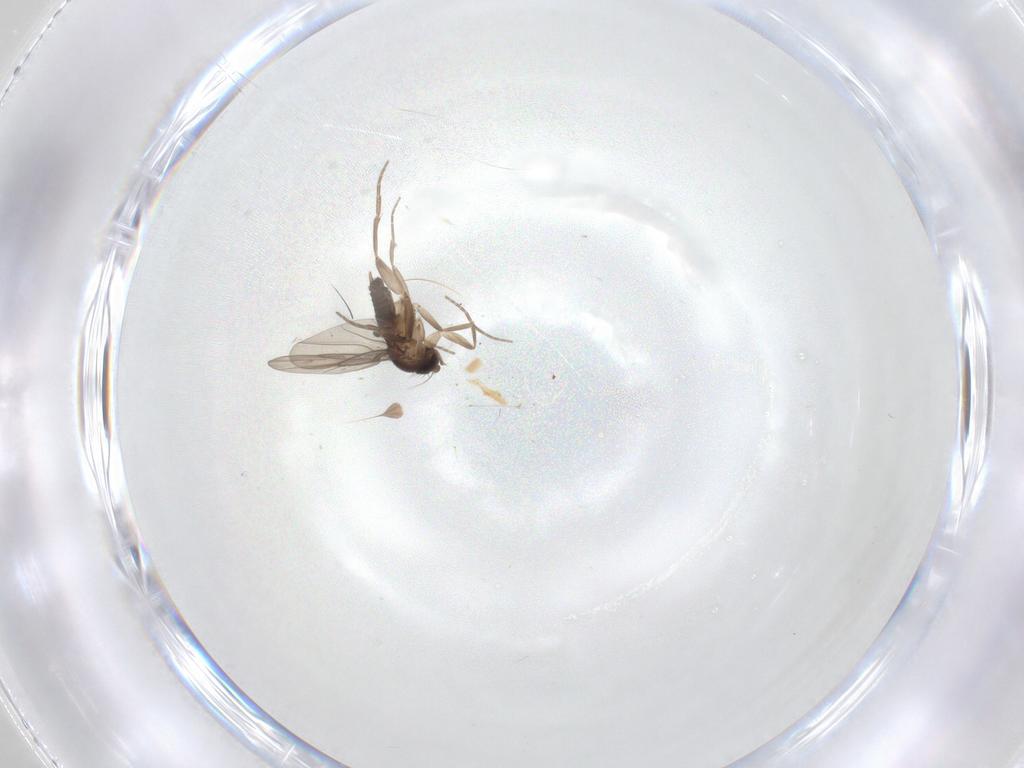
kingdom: Animalia
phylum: Arthropoda
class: Insecta
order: Diptera
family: Phoridae
